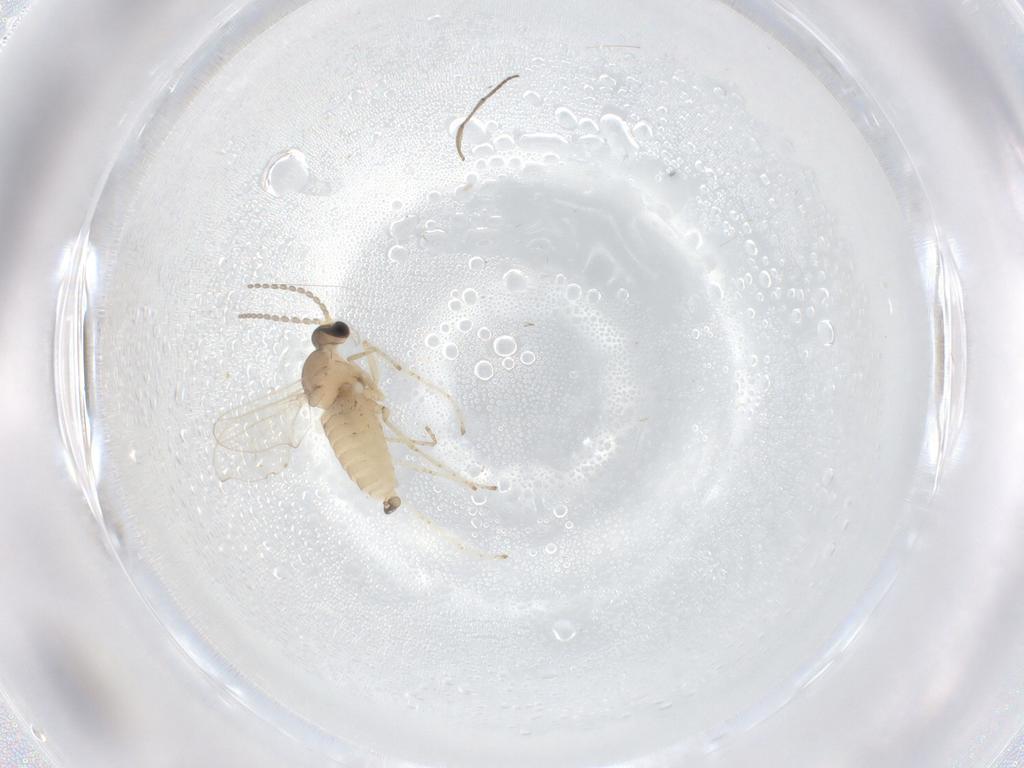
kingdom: Animalia
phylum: Arthropoda
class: Insecta
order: Diptera
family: Cecidomyiidae
